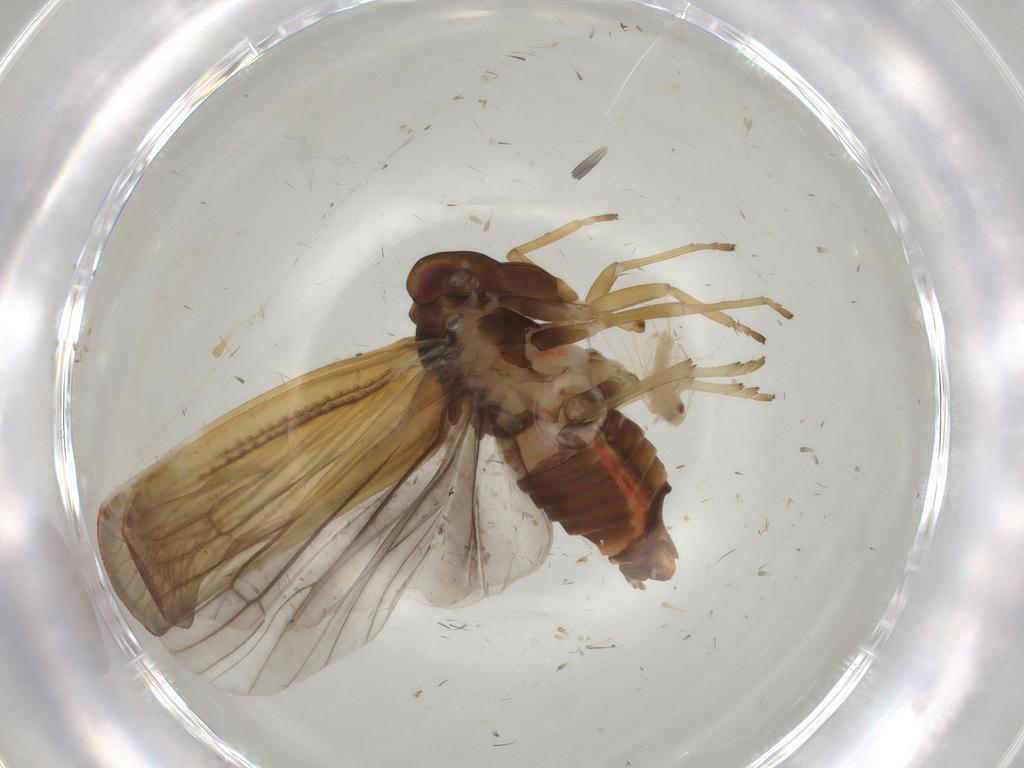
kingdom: Animalia
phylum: Arthropoda
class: Insecta
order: Hemiptera
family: Derbidae
